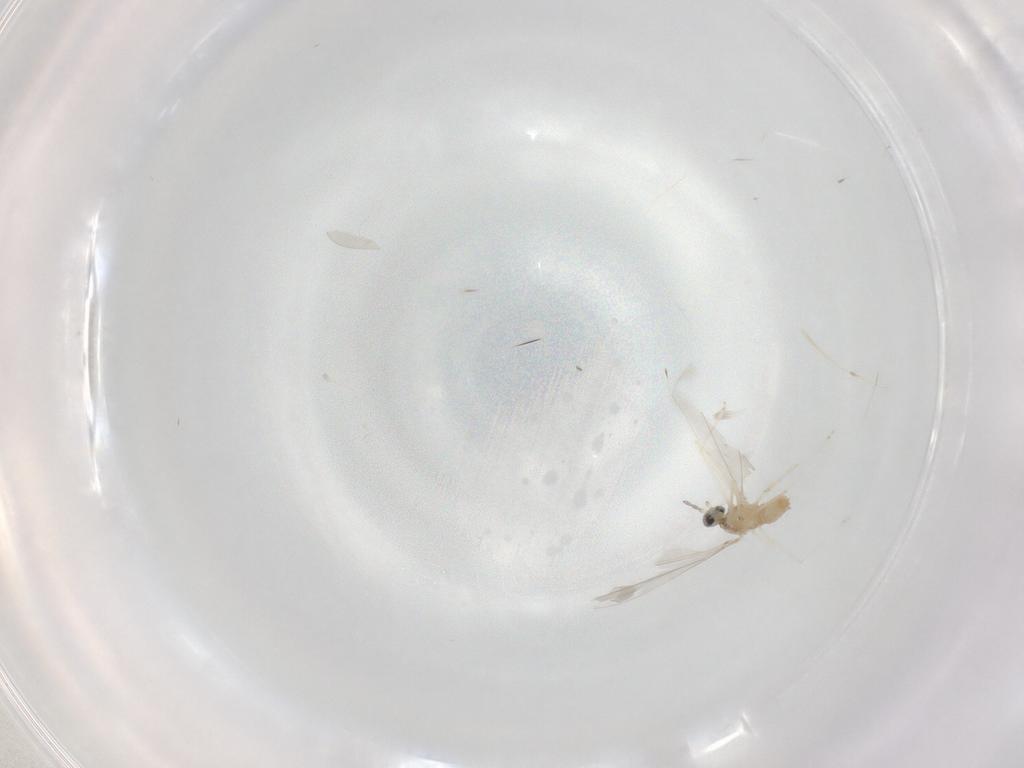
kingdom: Animalia
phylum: Arthropoda
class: Insecta
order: Diptera
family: Cecidomyiidae
